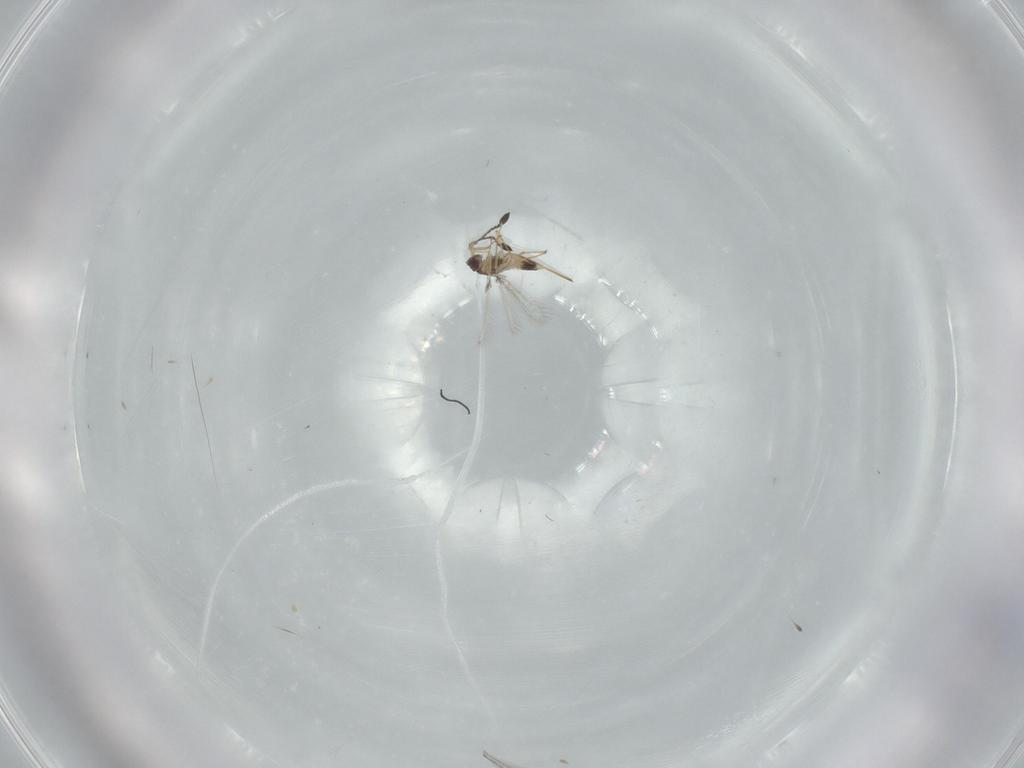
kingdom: Animalia
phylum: Arthropoda
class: Insecta
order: Hymenoptera
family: Mymaridae
